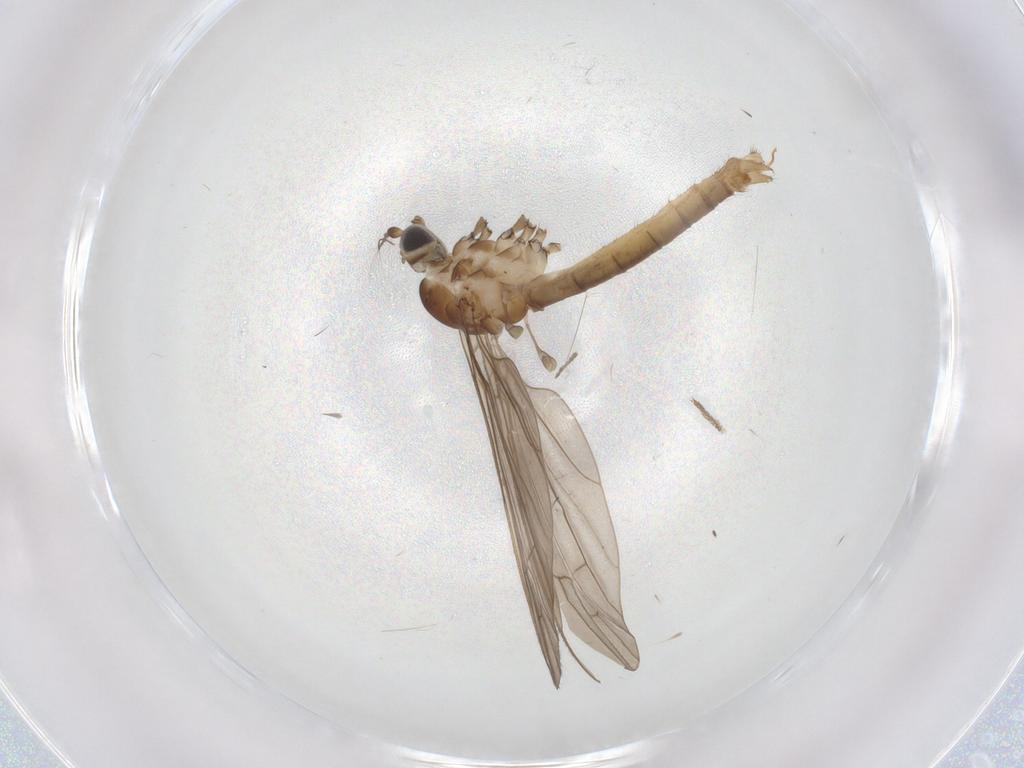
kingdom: Animalia
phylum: Arthropoda
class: Insecta
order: Diptera
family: Limoniidae
